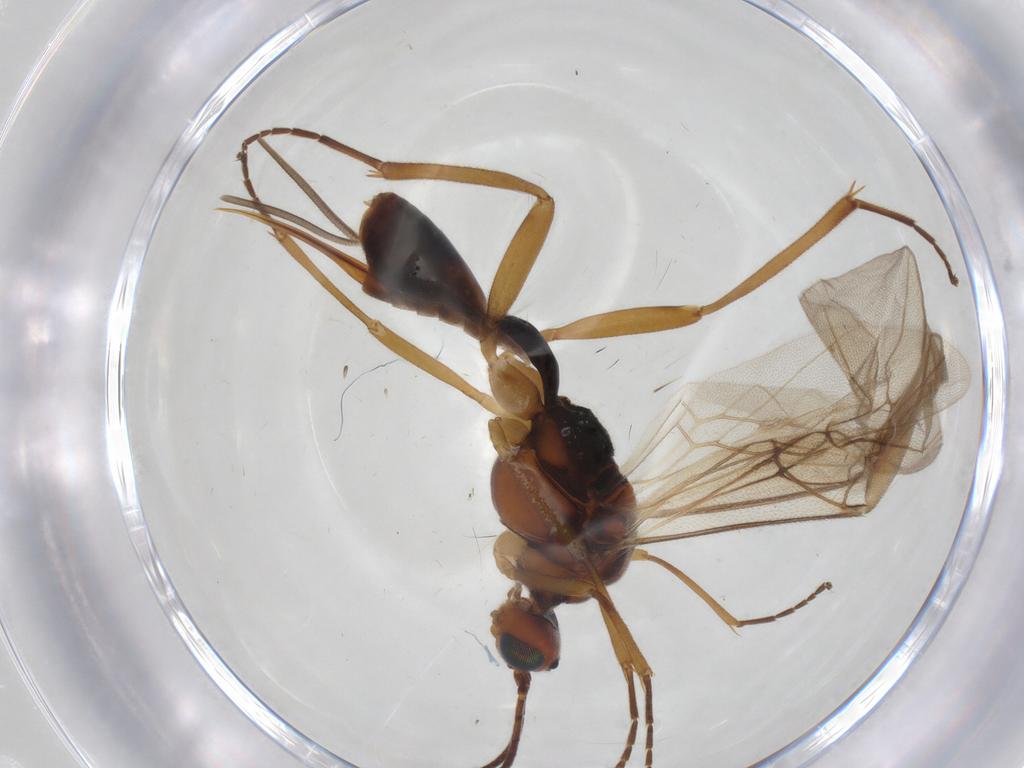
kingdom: Animalia
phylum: Arthropoda
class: Insecta
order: Hymenoptera
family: Braconidae
